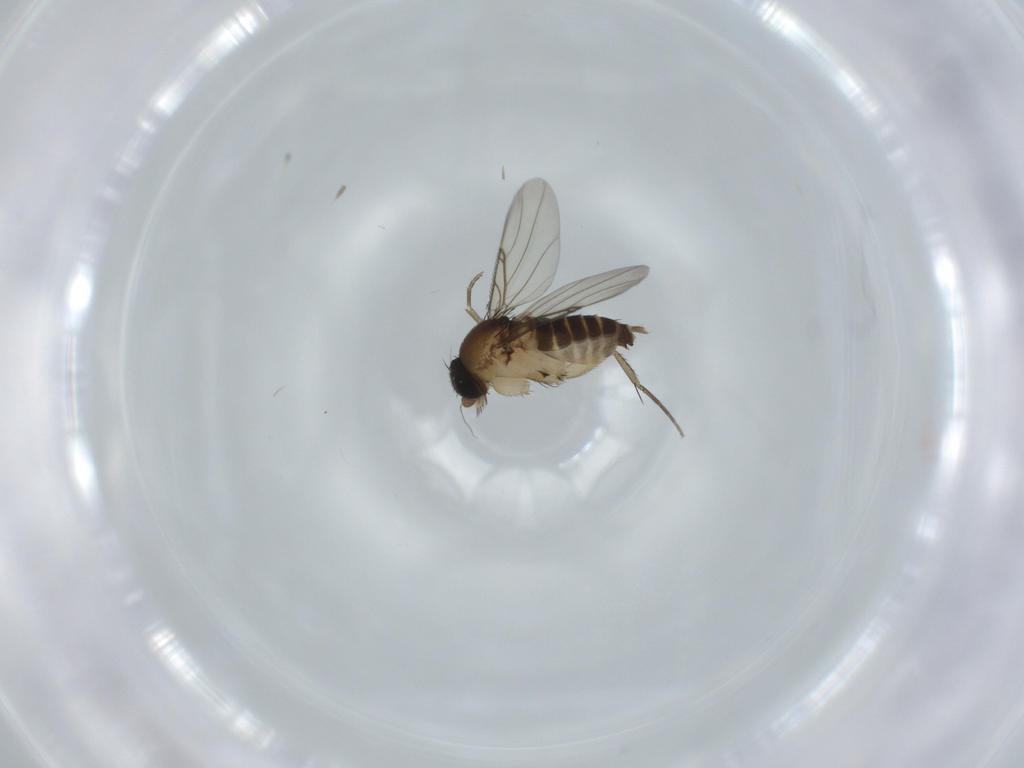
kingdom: Animalia
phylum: Arthropoda
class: Insecta
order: Diptera
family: Phoridae
